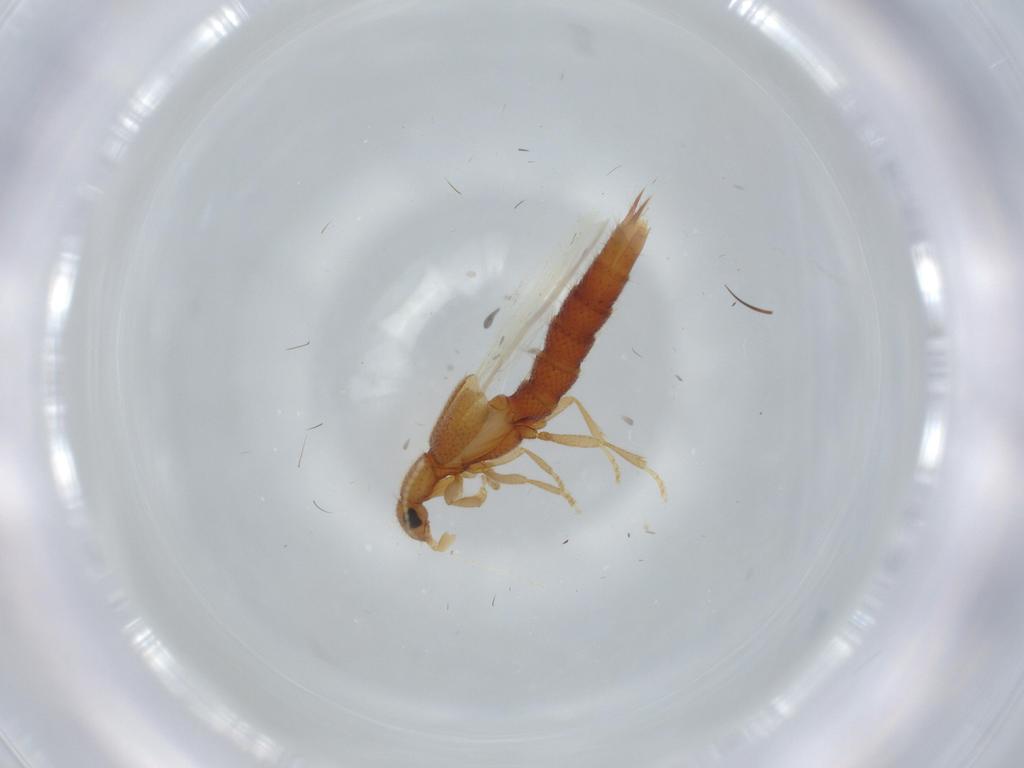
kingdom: Animalia
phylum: Arthropoda
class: Insecta
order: Coleoptera
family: Staphylinidae
